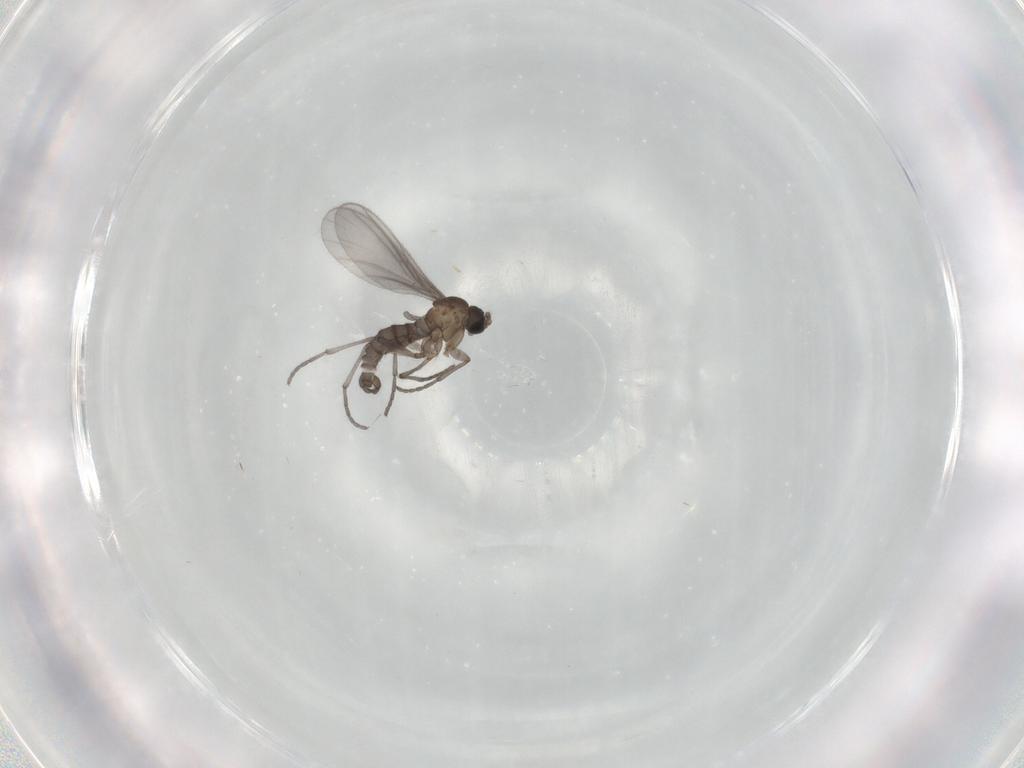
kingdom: Animalia
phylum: Arthropoda
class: Insecta
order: Diptera
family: Sciaridae
